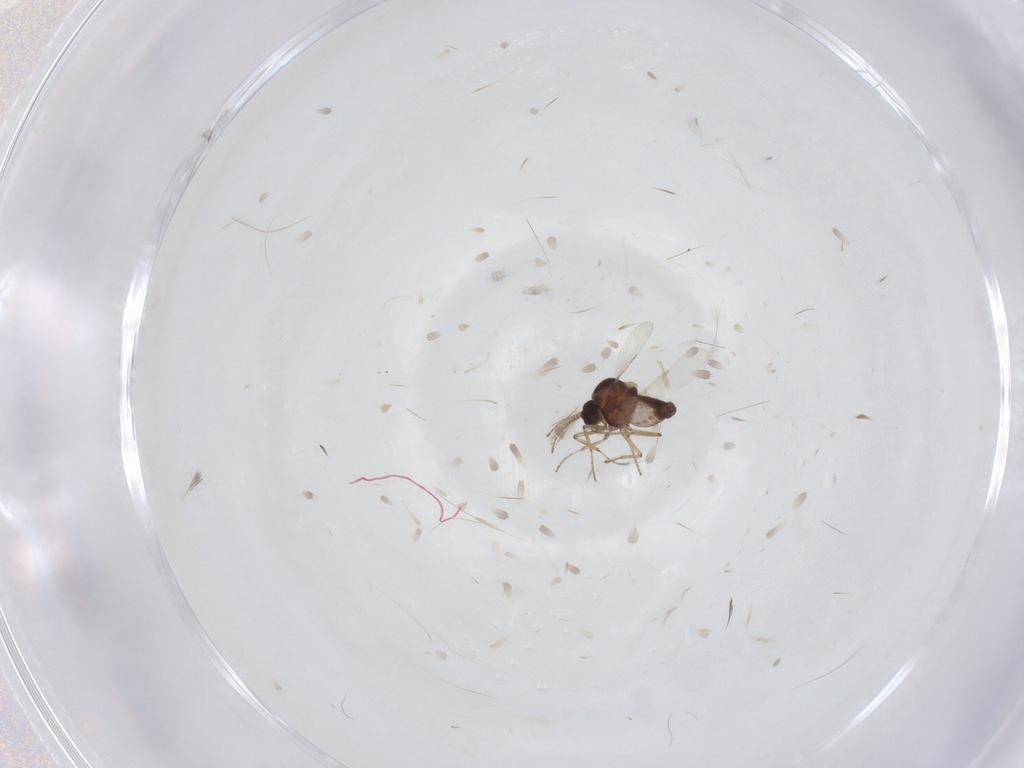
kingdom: Animalia
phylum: Arthropoda
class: Insecta
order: Diptera
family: Ceratopogonidae
